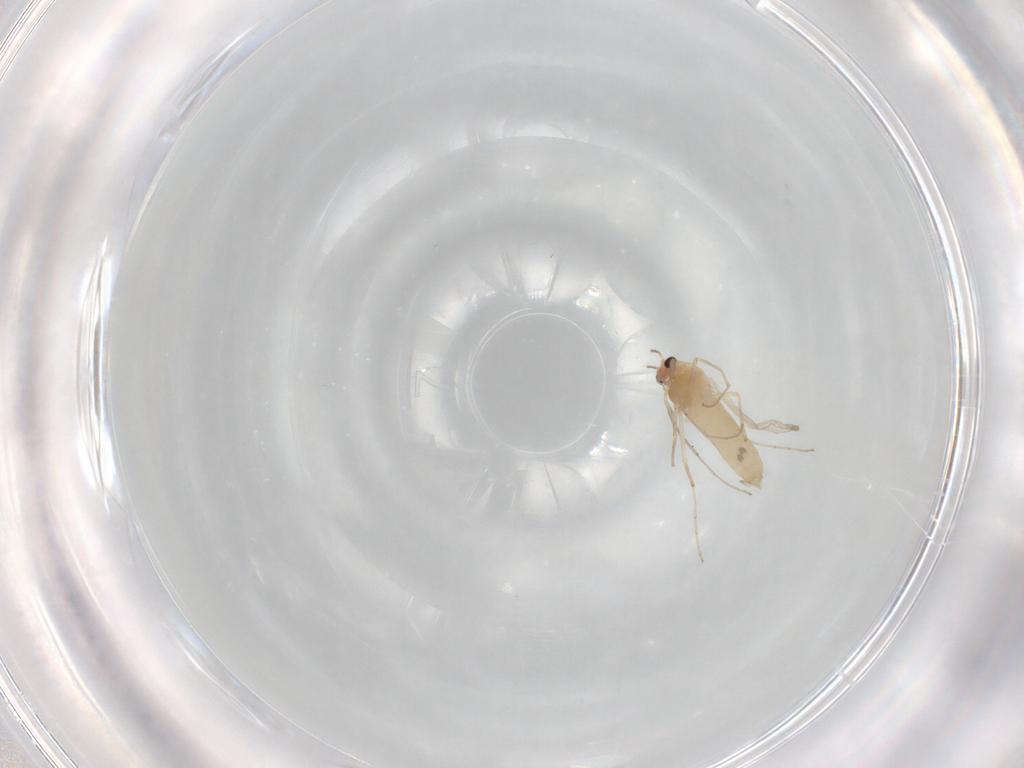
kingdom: Animalia
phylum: Arthropoda
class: Insecta
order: Diptera
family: Chironomidae
